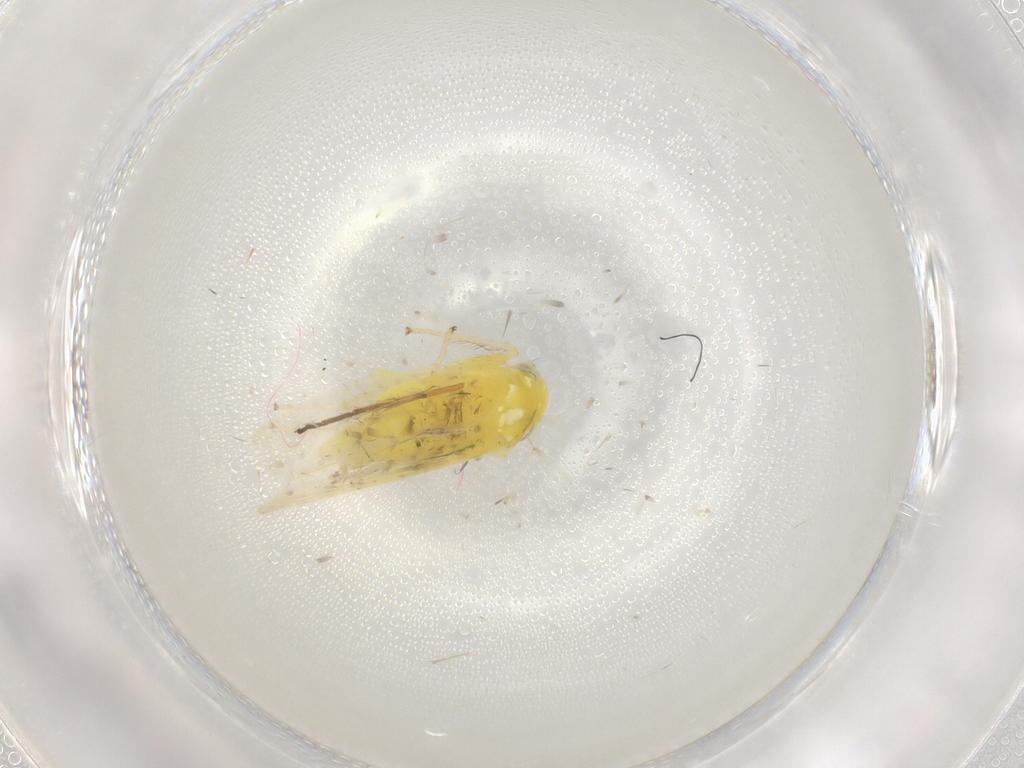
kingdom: Animalia
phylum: Arthropoda
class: Insecta
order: Hemiptera
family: Cicadellidae
